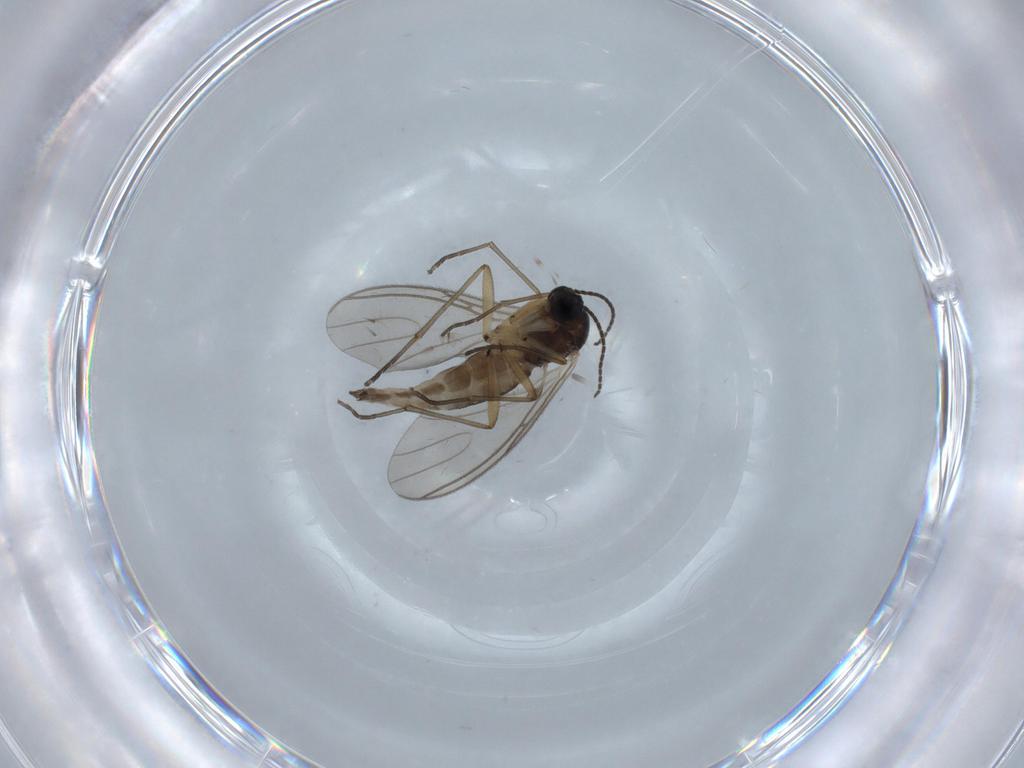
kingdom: Animalia
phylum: Arthropoda
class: Insecta
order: Diptera
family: Sciaridae
